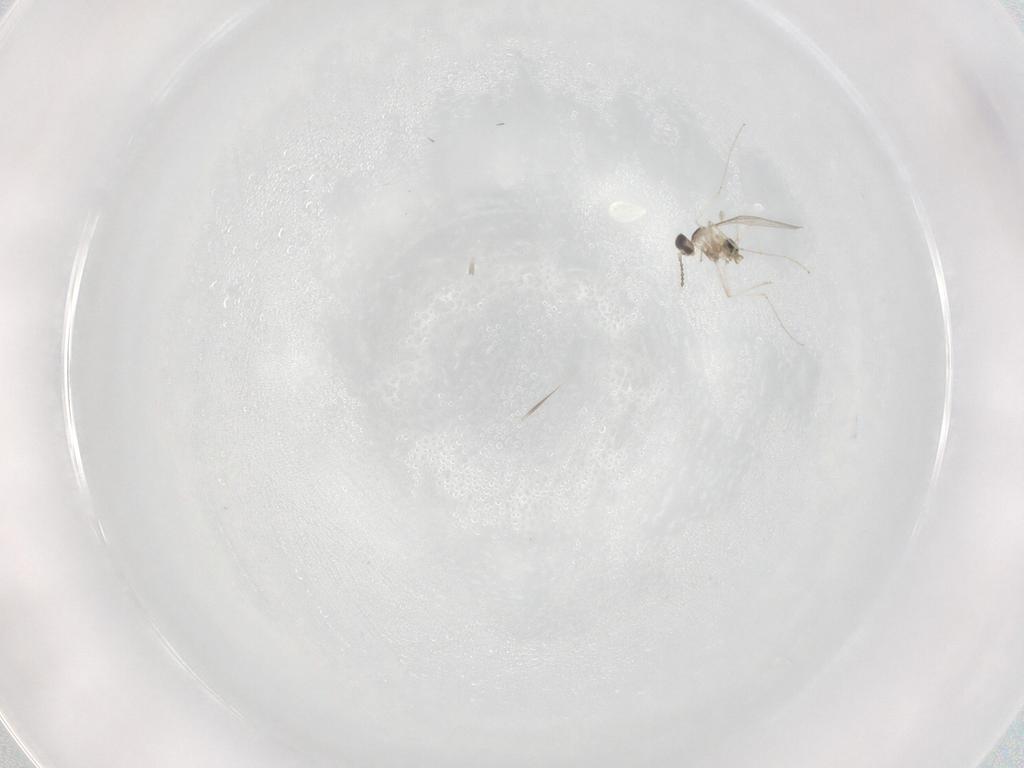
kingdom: Animalia
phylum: Arthropoda
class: Insecta
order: Diptera
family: Cecidomyiidae
